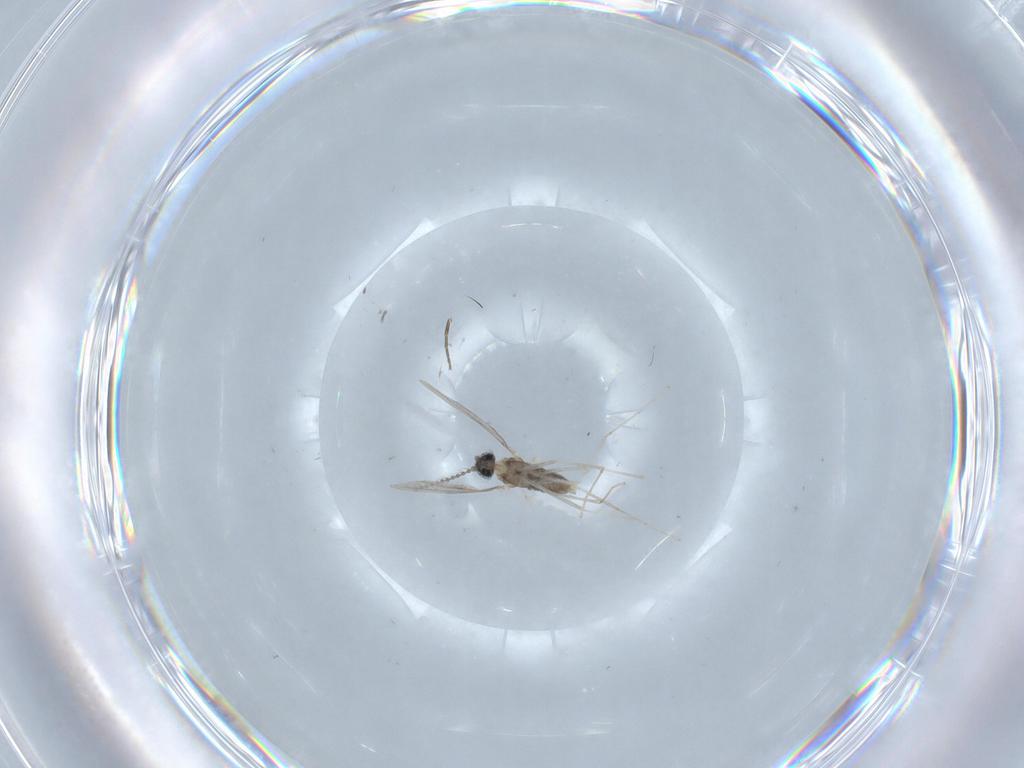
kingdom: Animalia
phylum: Arthropoda
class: Insecta
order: Diptera
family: Cecidomyiidae
